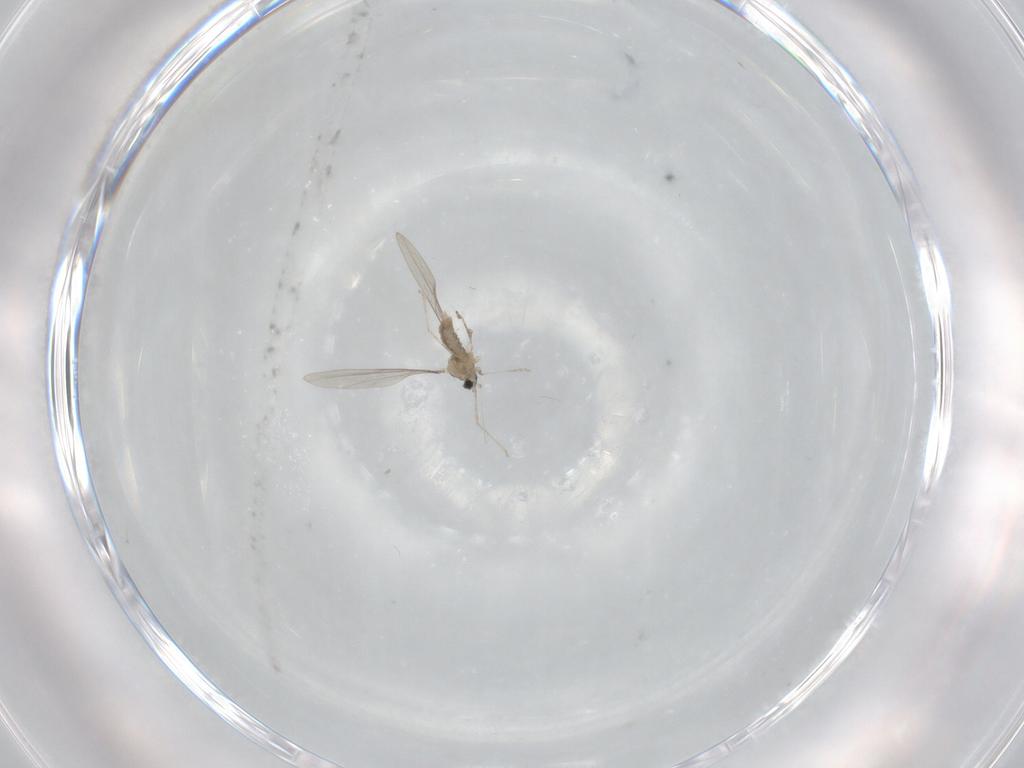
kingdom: Animalia
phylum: Arthropoda
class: Insecta
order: Diptera
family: Cecidomyiidae
